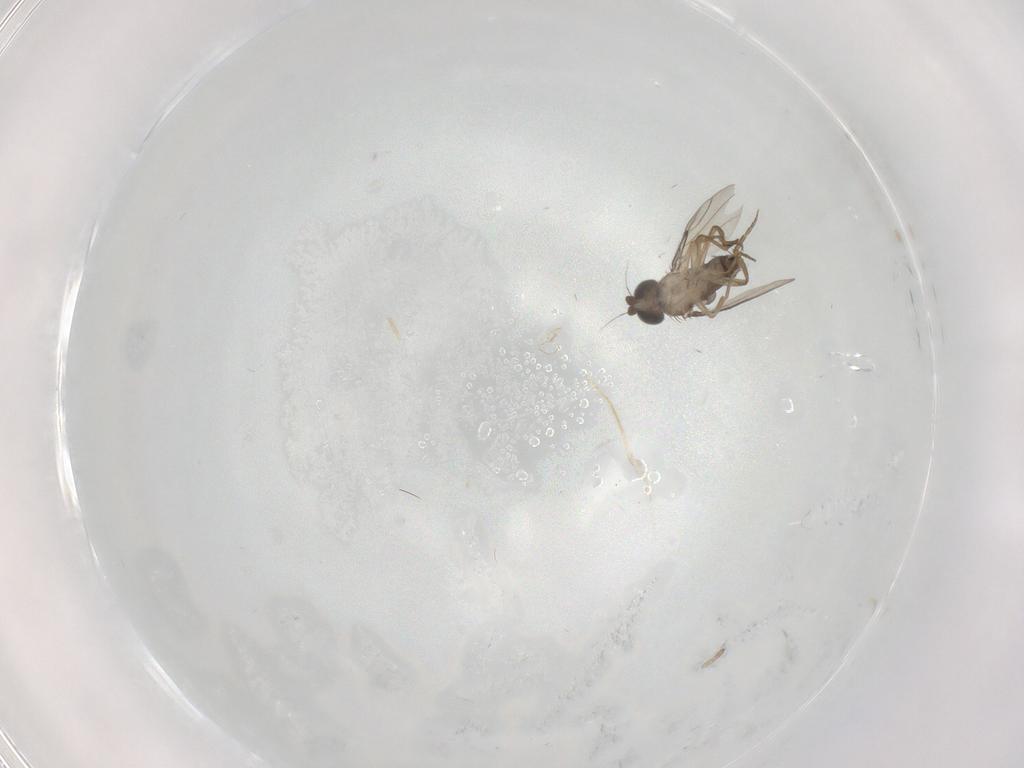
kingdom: Animalia
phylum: Arthropoda
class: Insecta
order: Diptera
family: Phoridae
